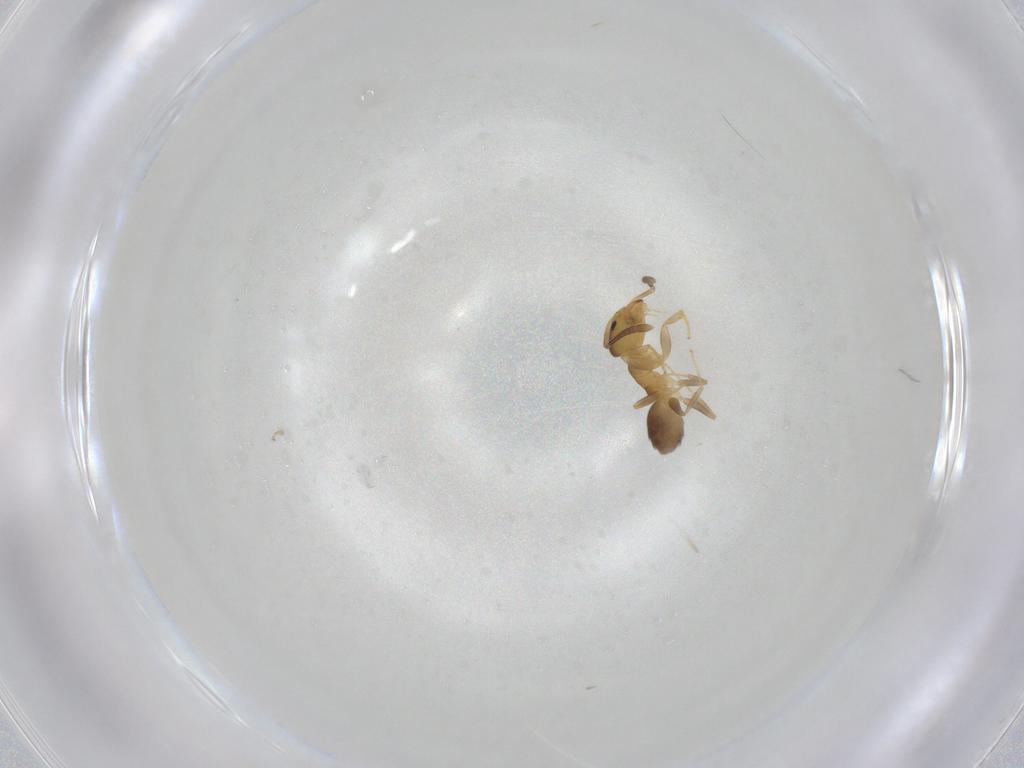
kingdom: Animalia
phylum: Arthropoda
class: Insecta
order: Hymenoptera
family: Formicidae
